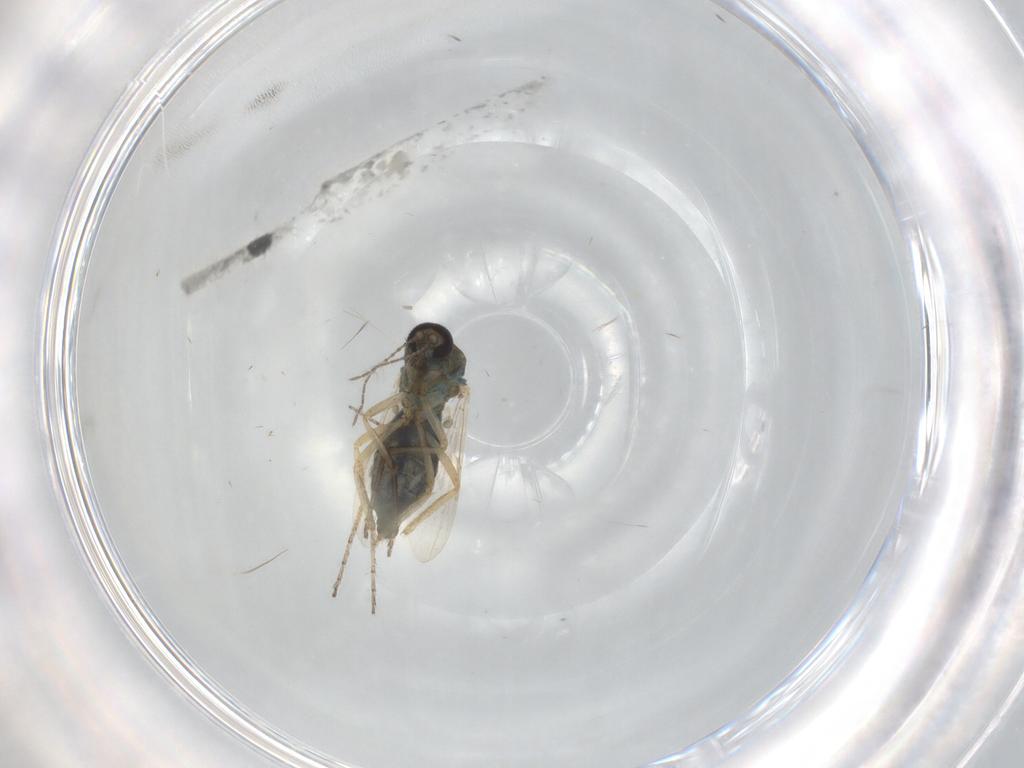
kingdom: Animalia
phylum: Arthropoda
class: Insecta
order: Diptera
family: Ceratopogonidae
